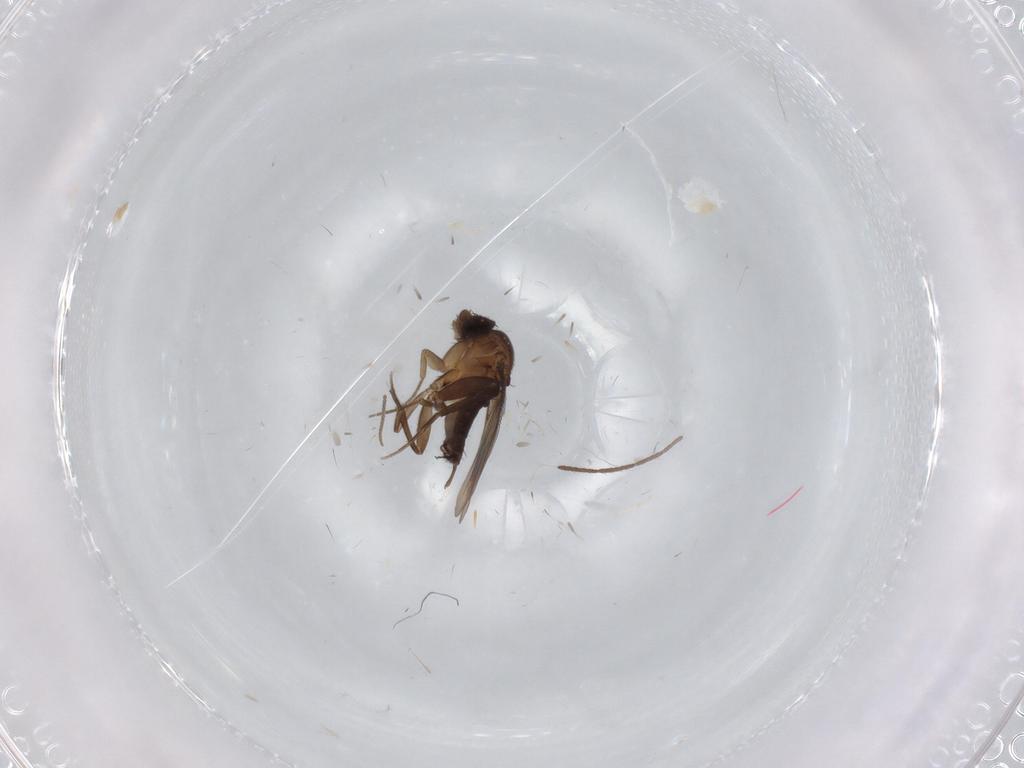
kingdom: Animalia
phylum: Arthropoda
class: Insecta
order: Diptera
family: Phoridae
